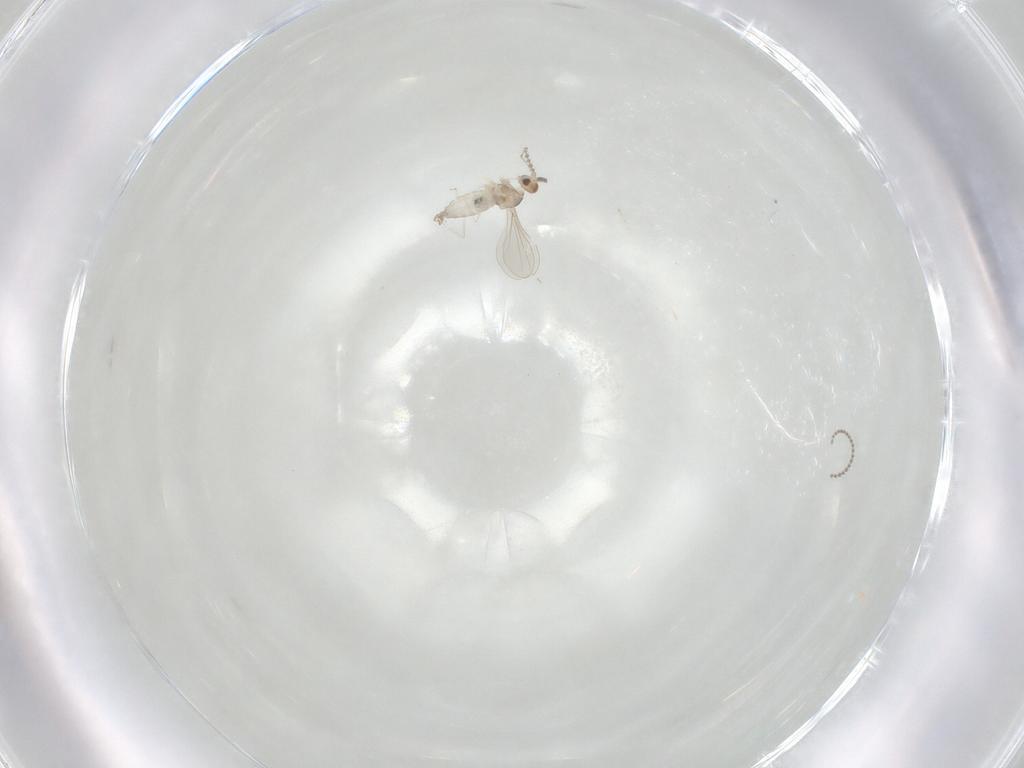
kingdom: Animalia
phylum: Arthropoda
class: Insecta
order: Diptera
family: Cecidomyiidae
